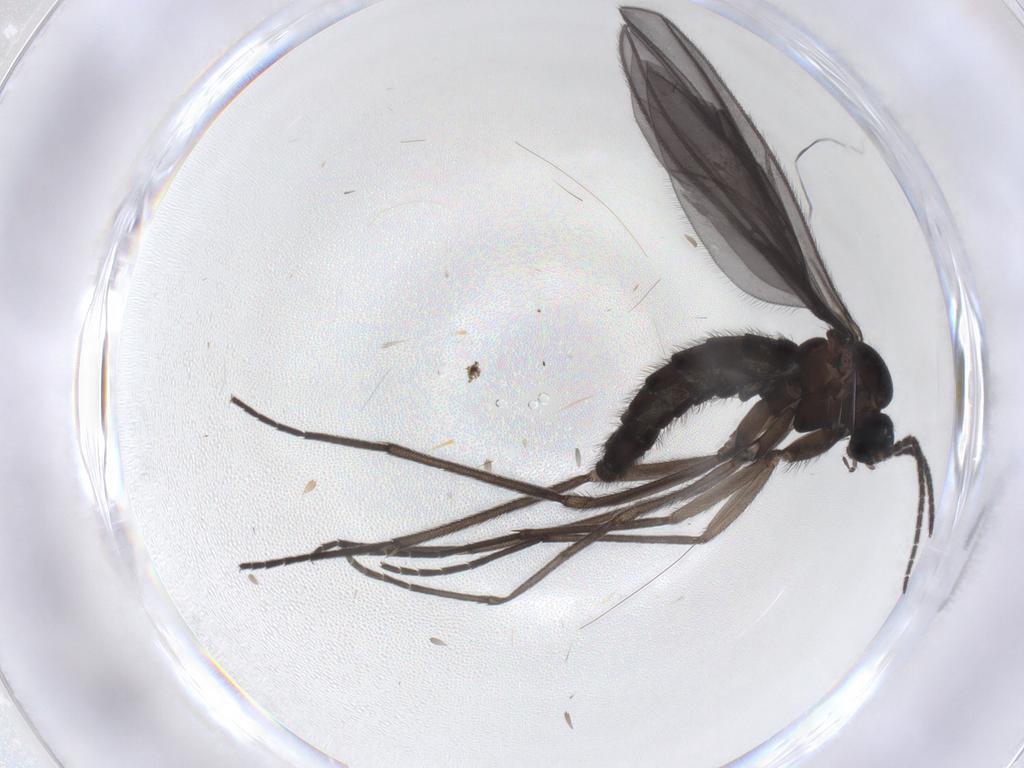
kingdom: Animalia
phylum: Arthropoda
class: Insecta
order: Diptera
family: Sciaridae
